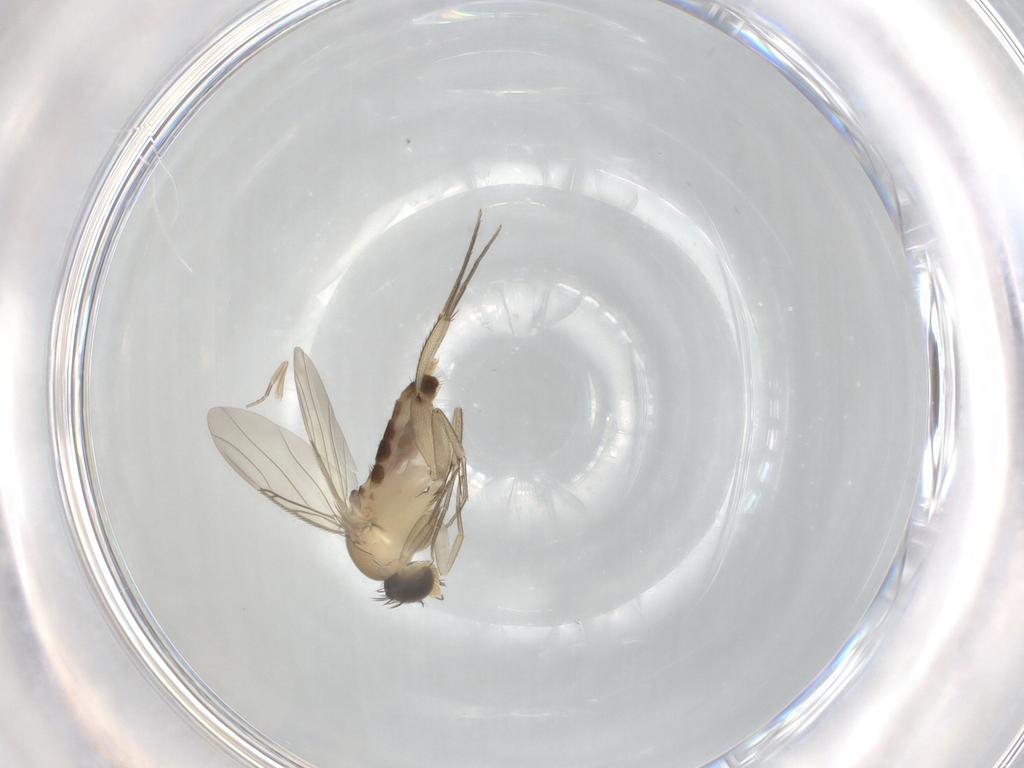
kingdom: Animalia
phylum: Arthropoda
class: Insecta
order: Diptera
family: Phoridae
